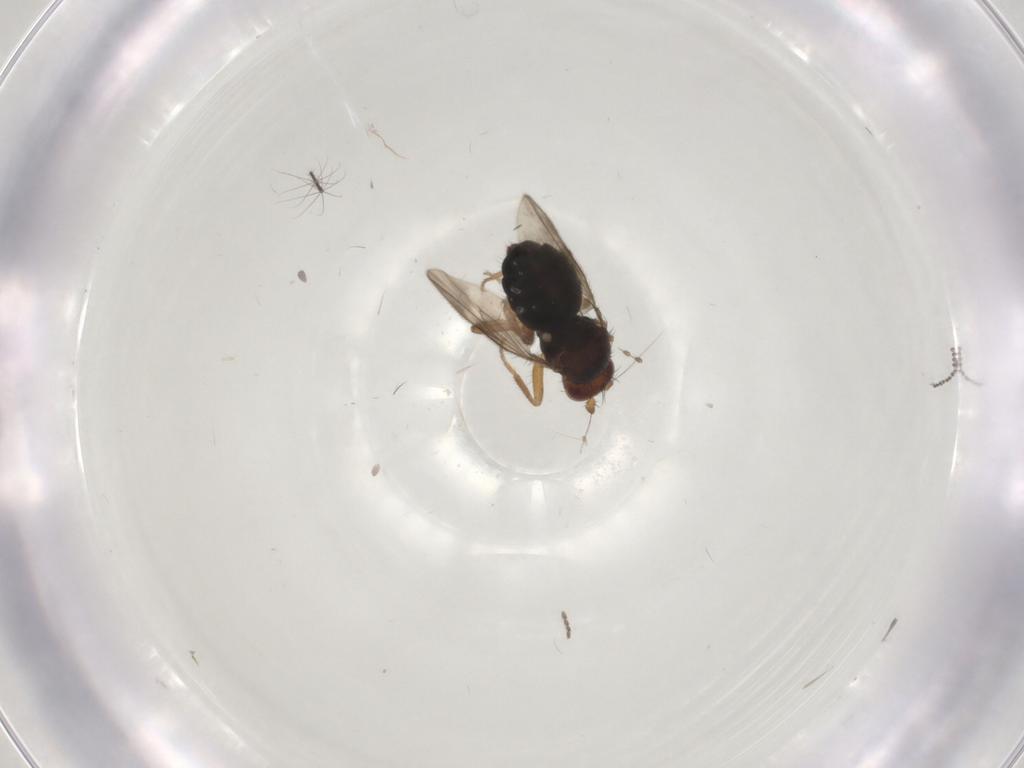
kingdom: Animalia
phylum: Arthropoda
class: Insecta
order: Diptera
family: Sphaeroceridae
